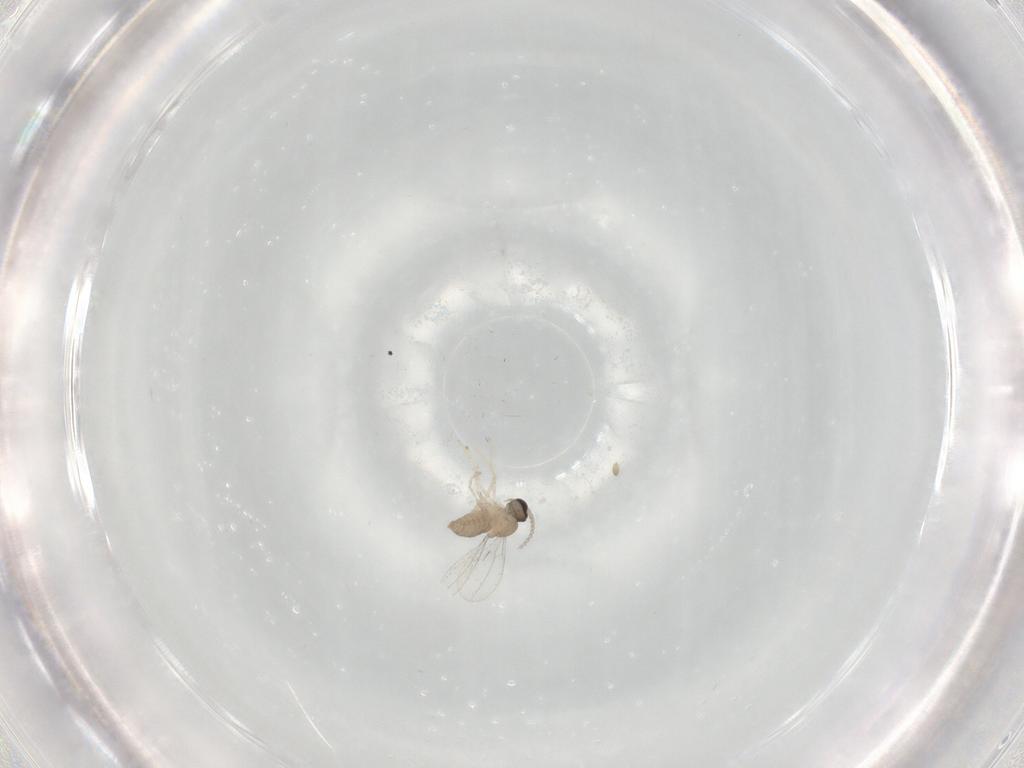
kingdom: Animalia
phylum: Arthropoda
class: Insecta
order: Diptera
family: Cecidomyiidae
